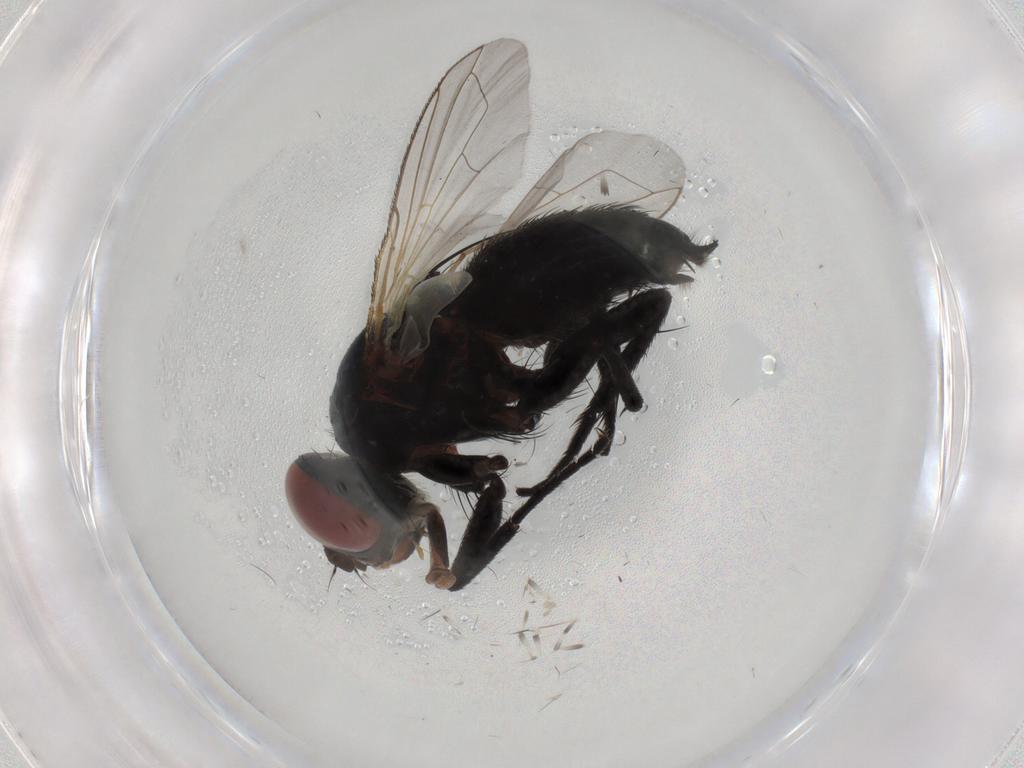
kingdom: Animalia
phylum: Arthropoda
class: Insecta
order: Diptera
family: Tachinidae
